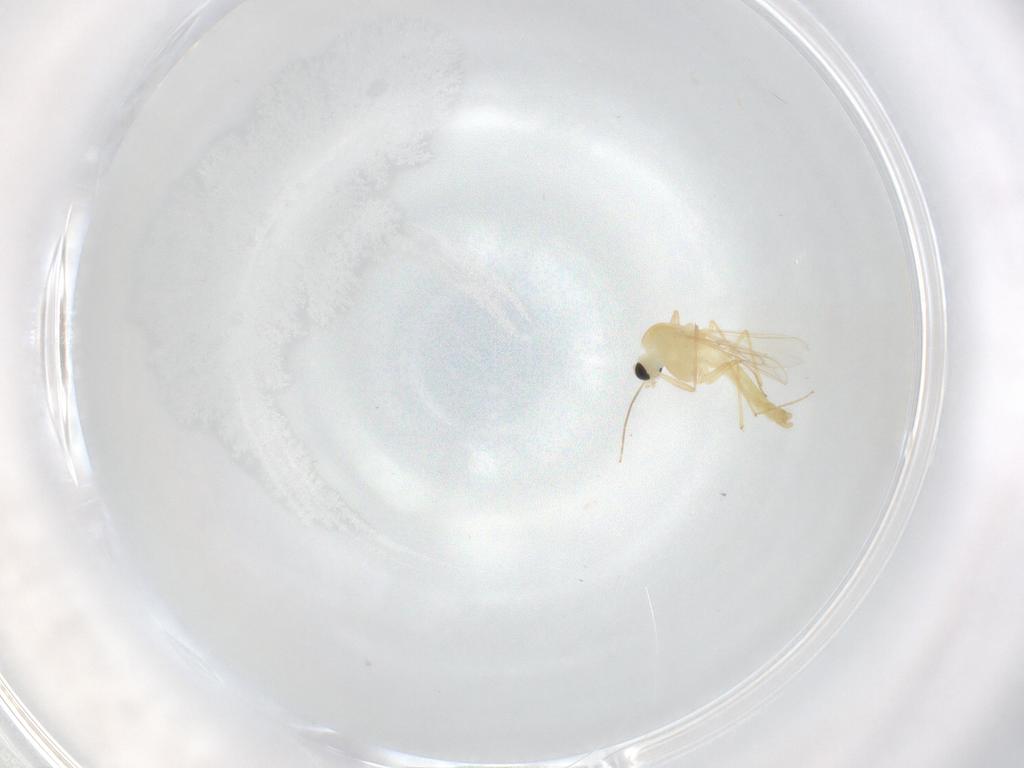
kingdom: Animalia
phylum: Arthropoda
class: Insecta
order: Diptera
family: Chironomidae
